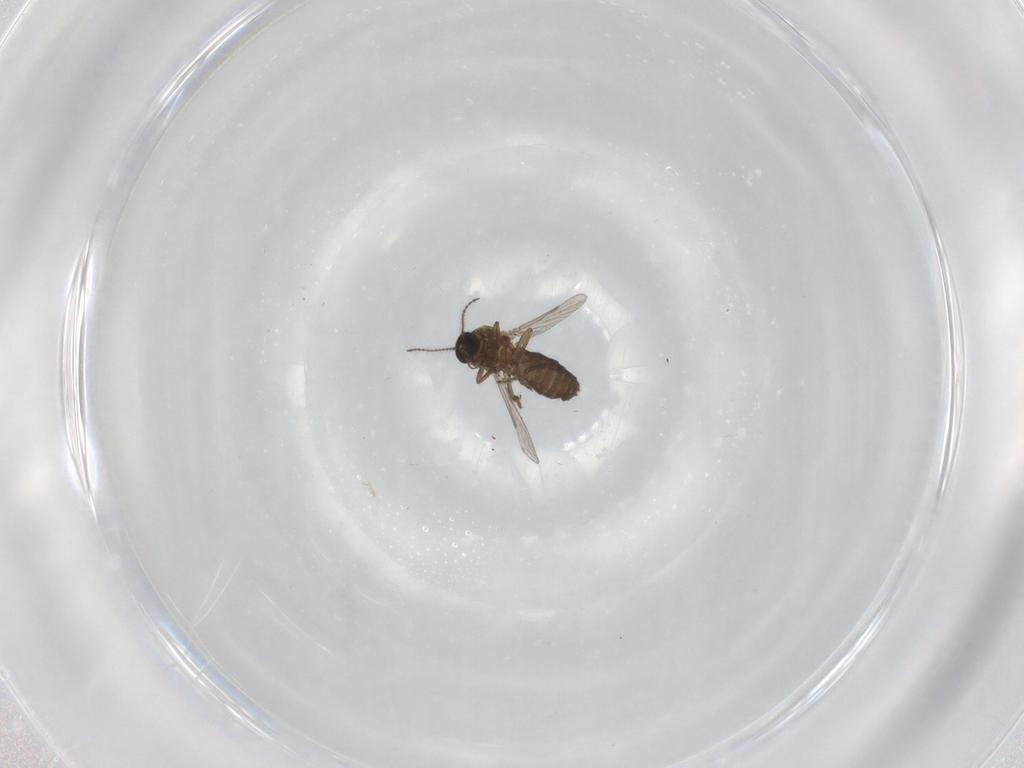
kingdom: Animalia
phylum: Arthropoda
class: Insecta
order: Diptera
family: Ceratopogonidae
